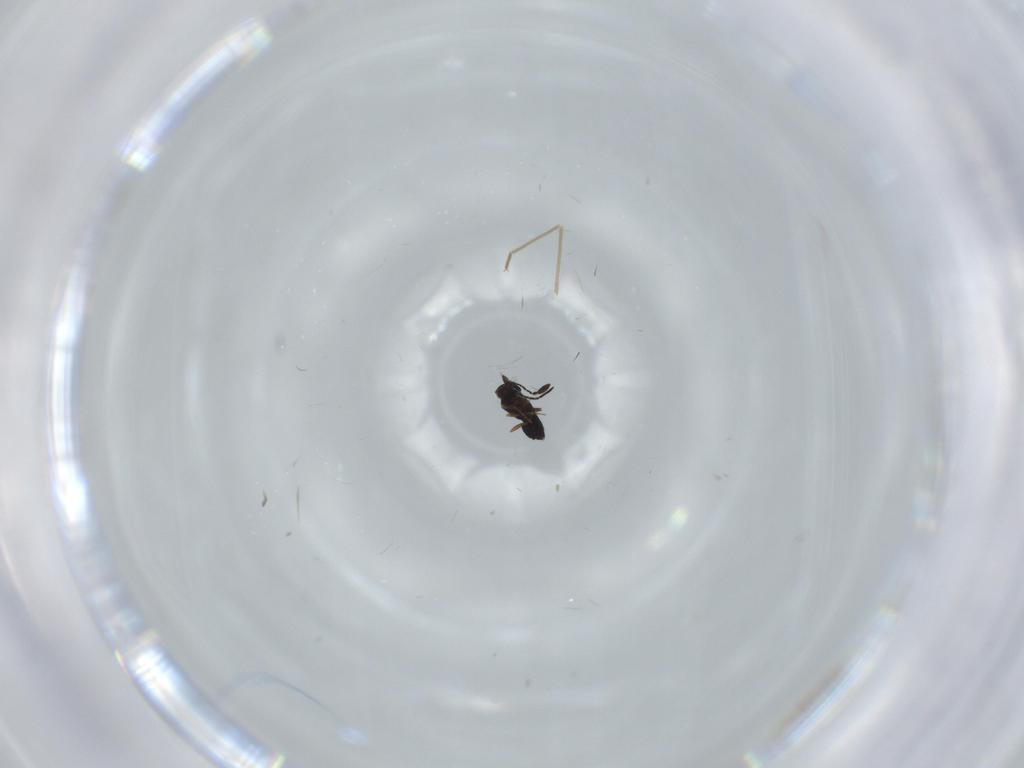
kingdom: Animalia
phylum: Arthropoda
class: Insecta
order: Hymenoptera
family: Mymaridae
